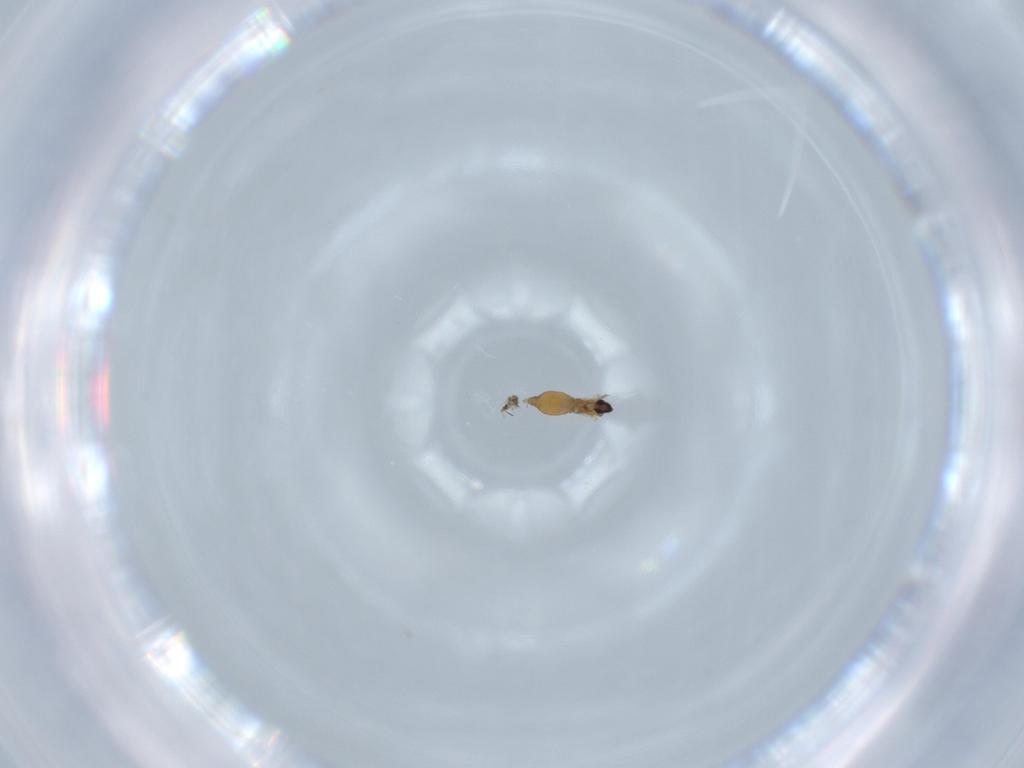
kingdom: Animalia
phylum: Arthropoda
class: Insecta
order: Diptera
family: Cecidomyiidae
